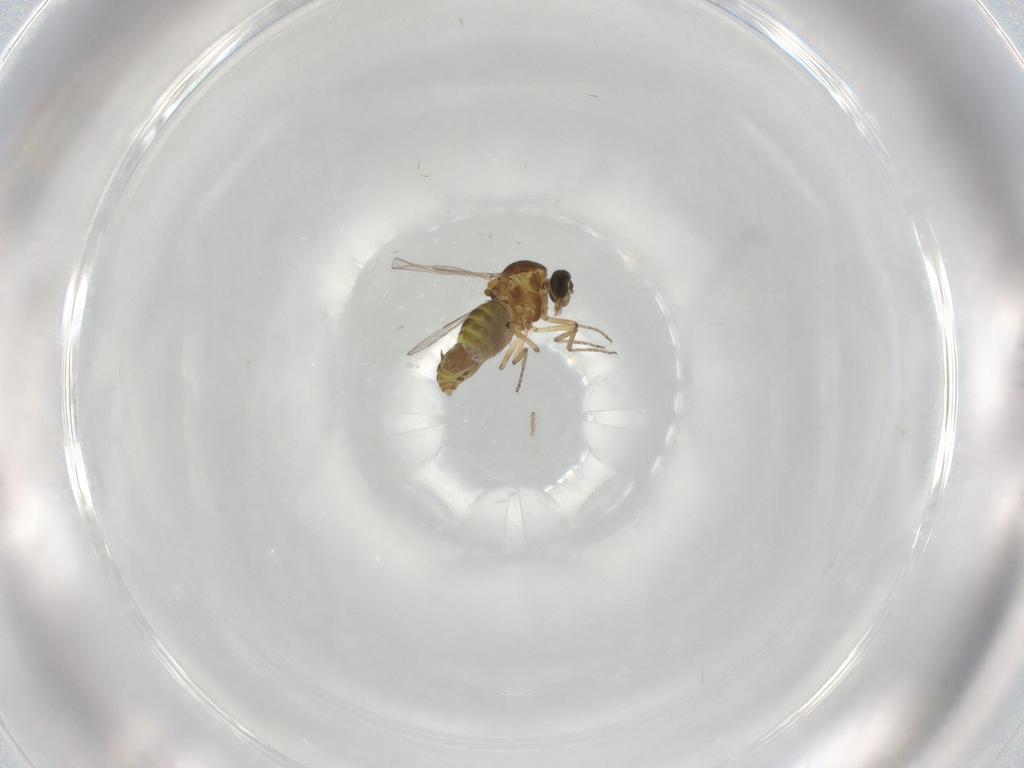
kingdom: Animalia
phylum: Arthropoda
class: Insecta
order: Diptera
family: Ceratopogonidae
